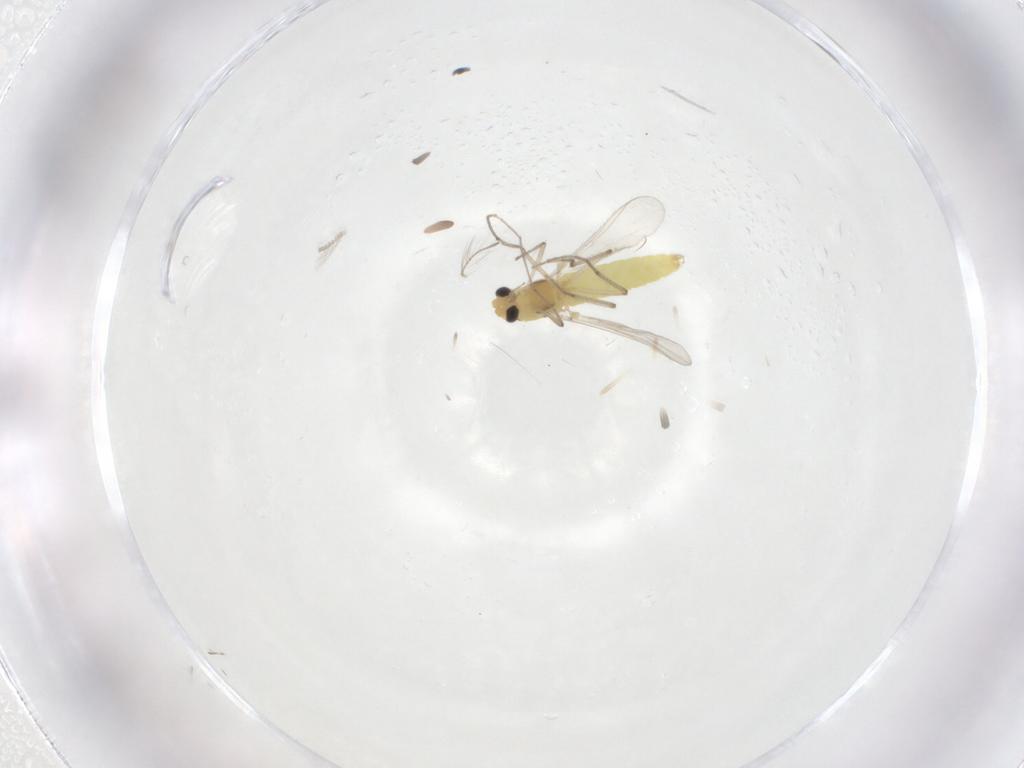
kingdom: Animalia
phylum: Arthropoda
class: Insecta
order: Diptera
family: Chironomidae
